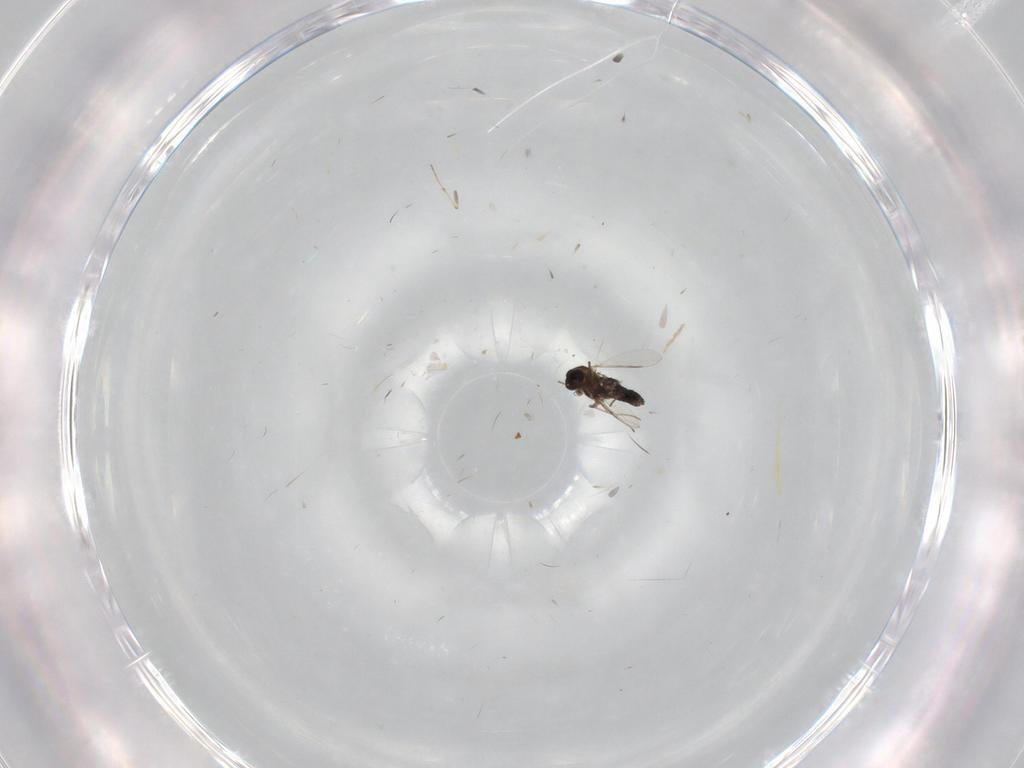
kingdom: Animalia
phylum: Arthropoda
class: Insecta
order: Diptera
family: Chironomidae
